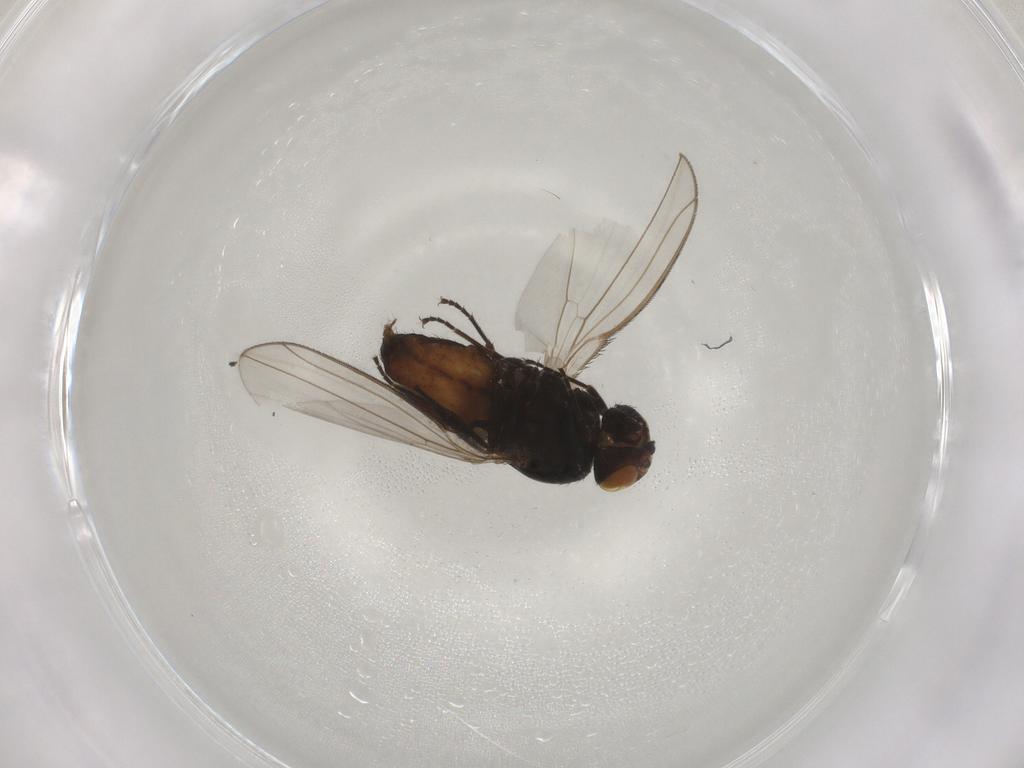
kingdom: Animalia
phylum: Arthropoda
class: Insecta
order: Diptera
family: Ceratopogonidae
